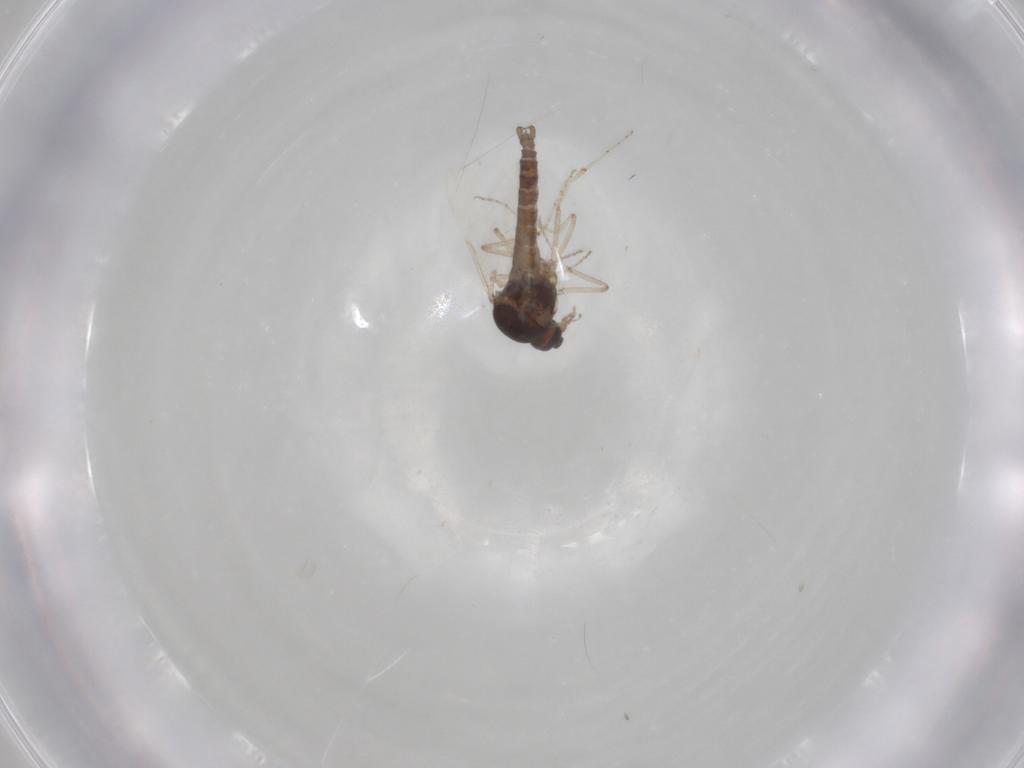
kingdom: Animalia
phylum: Arthropoda
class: Insecta
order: Diptera
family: Ceratopogonidae
